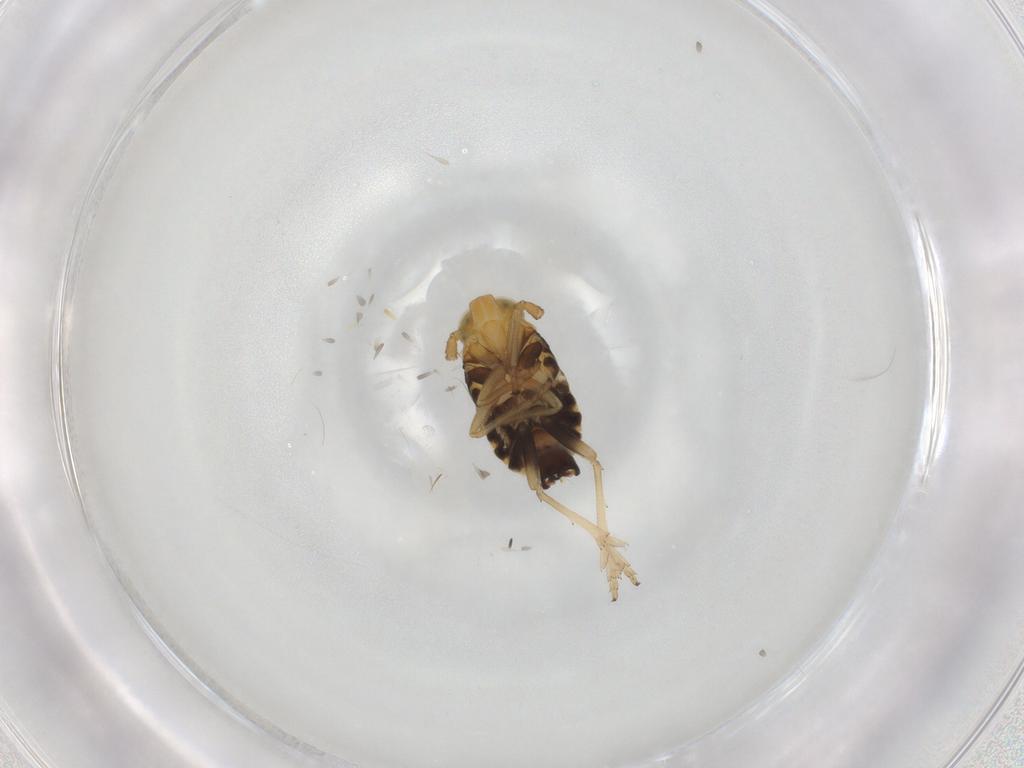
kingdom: Animalia
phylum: Arthropoda
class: Insecta
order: Hemiptera
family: Delphacidae
